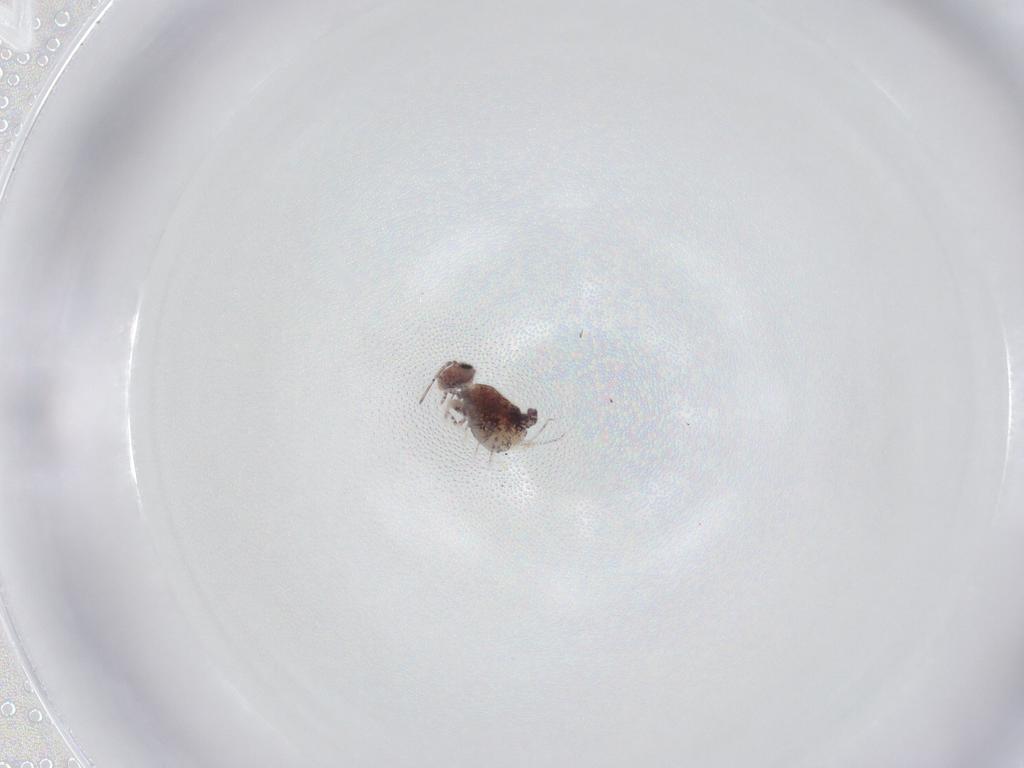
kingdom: Animalia
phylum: Arthropoda
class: Collembola
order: Symphypleona
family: Bourletiellidae
